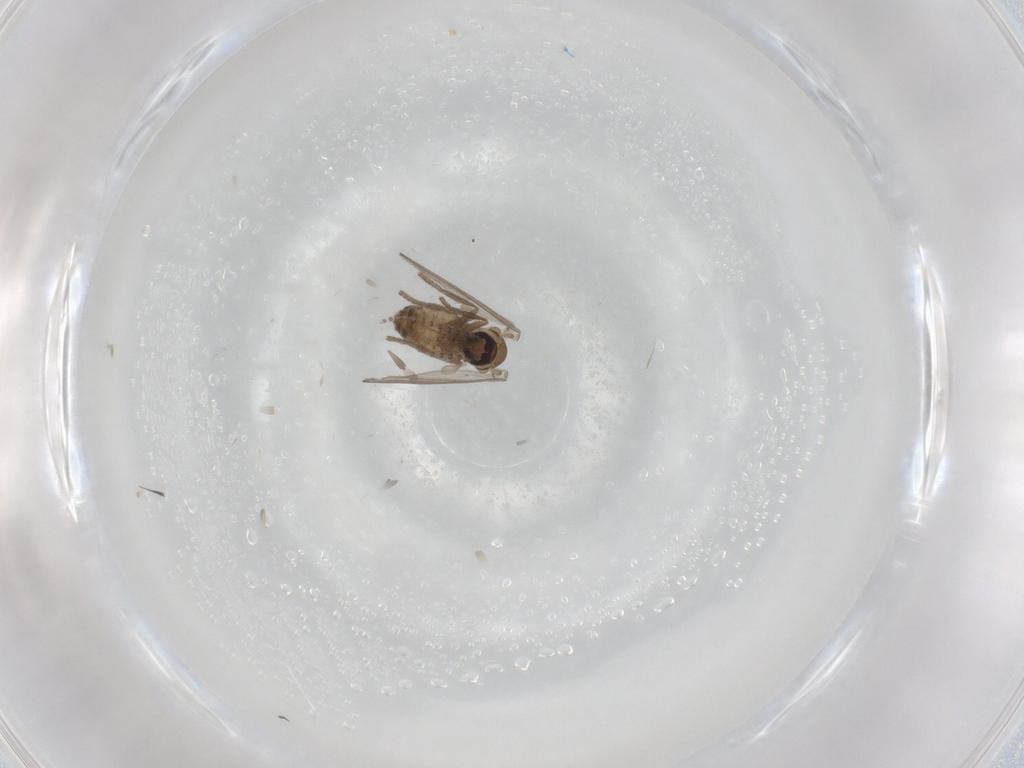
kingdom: Animalia
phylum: Arthropoda
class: Insecta
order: Diptera
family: Psychodidae
